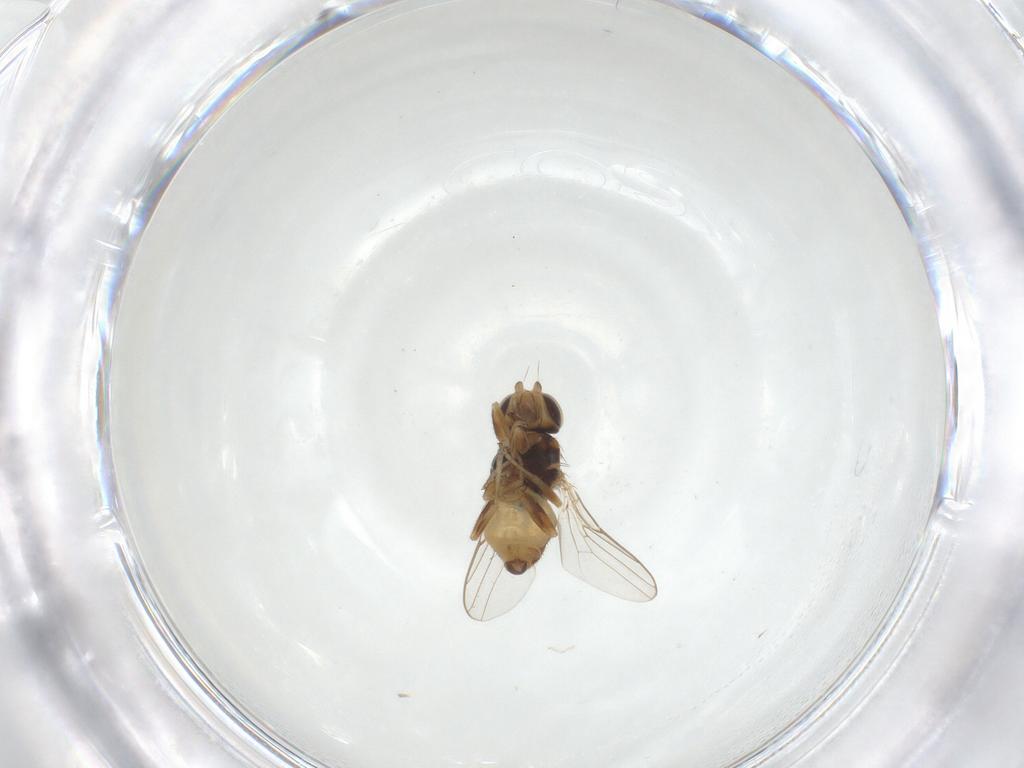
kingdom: Animalia
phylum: Arthropoda
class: Insecta
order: Diptera
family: Chloropidae
